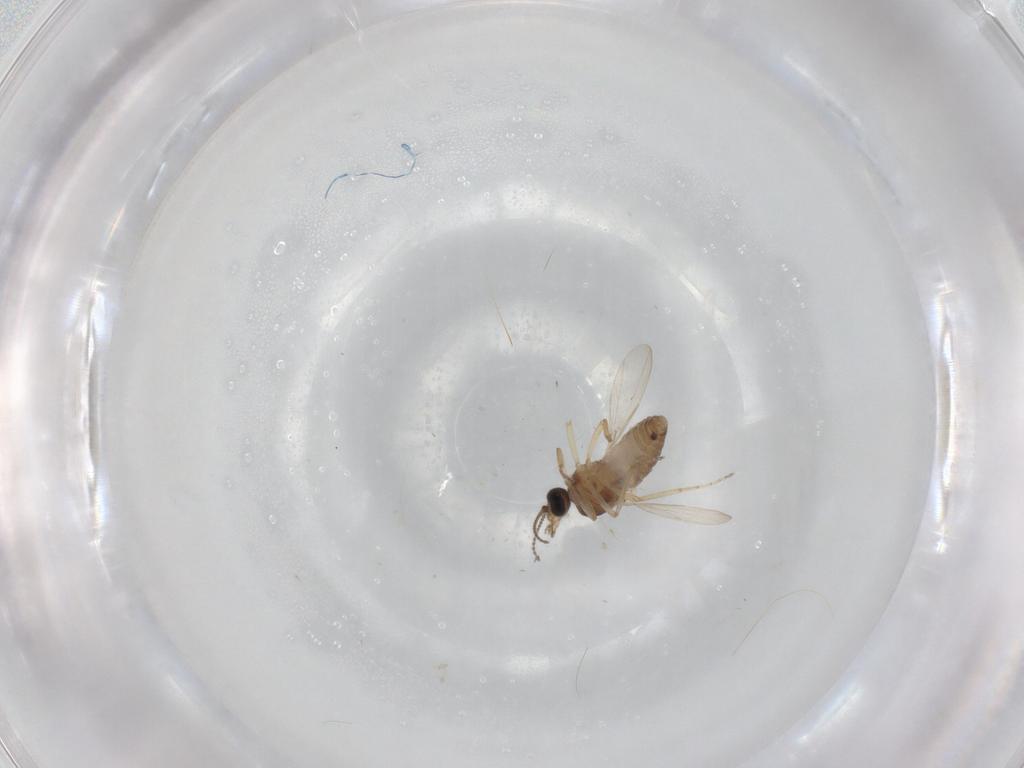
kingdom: Animalia
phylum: Arthropoda
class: Insecta
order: Diptera
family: Ceratopogonidae
